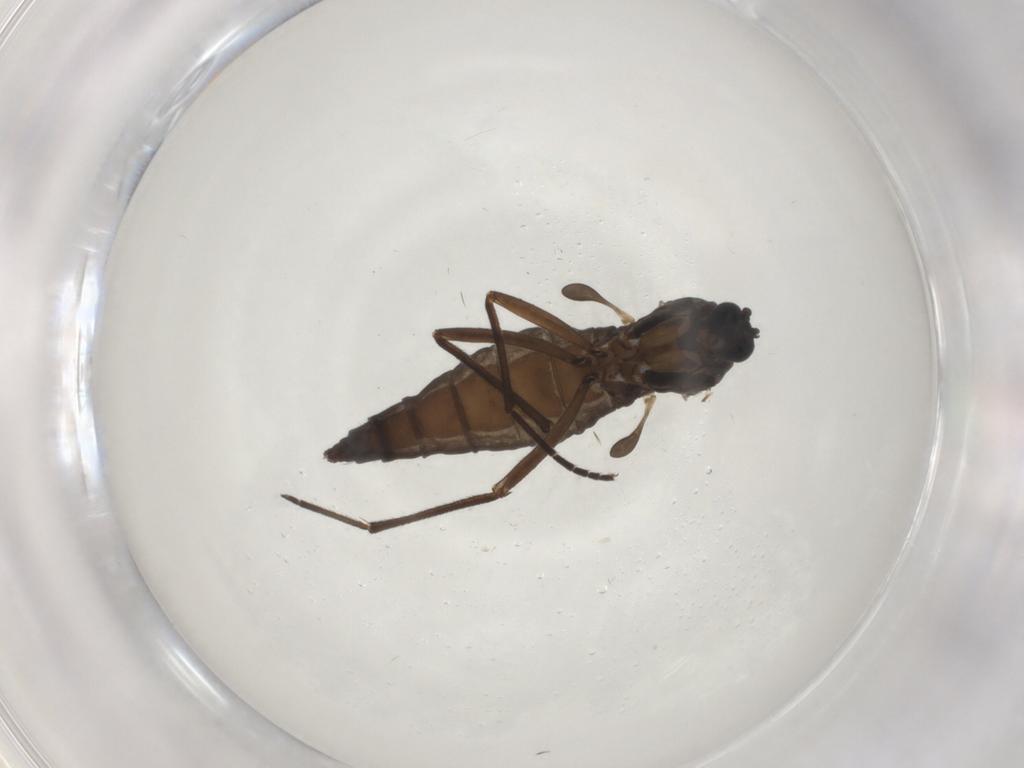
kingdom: Animalia
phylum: Arthropoda
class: Insecta
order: Diptera
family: Sciaridae
